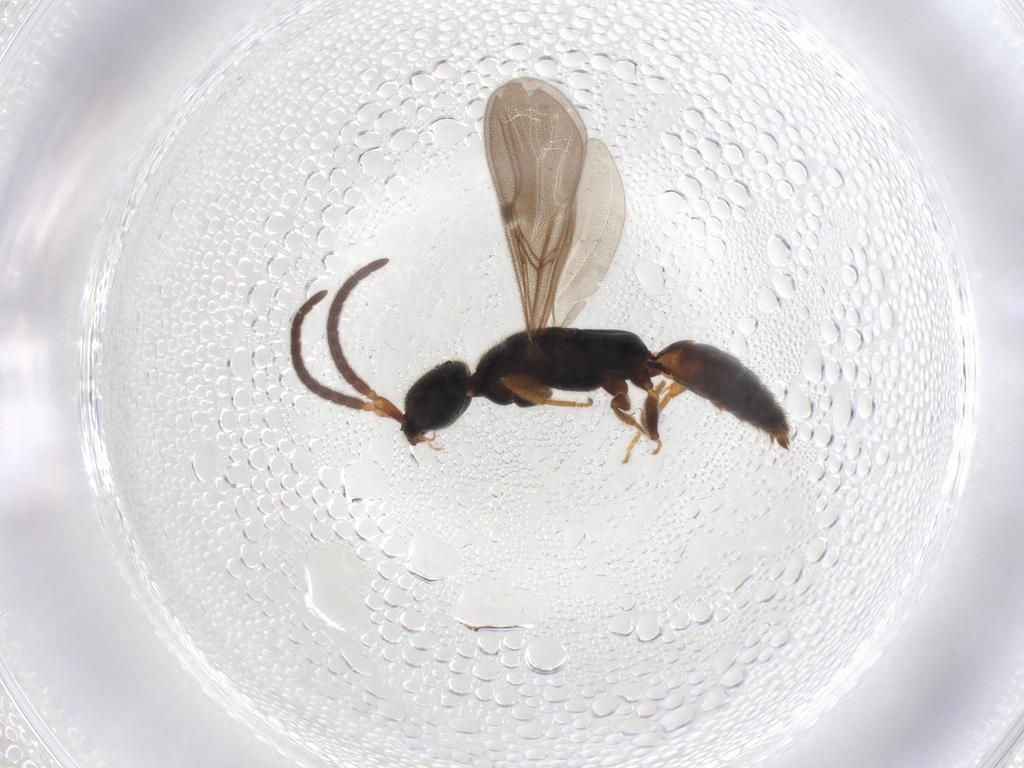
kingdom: Animalia
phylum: Arthropoda
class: Insecta
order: Hymenoptera
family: Bethylidae
